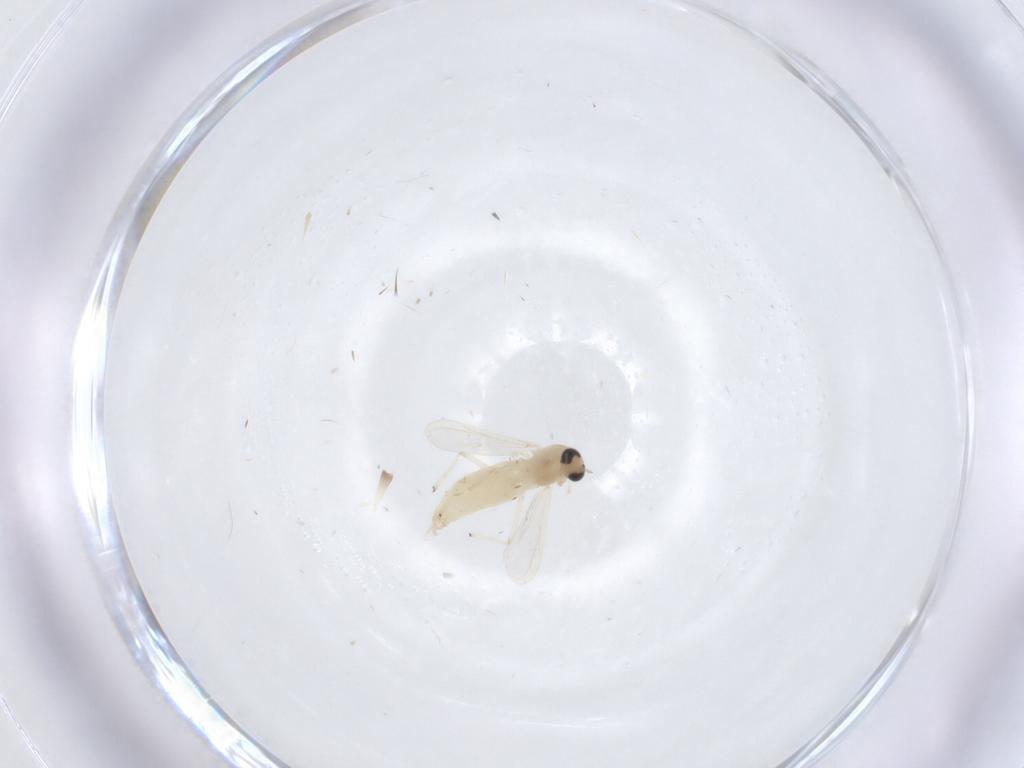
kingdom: Animalia
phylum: Arthropoda
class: Insecta
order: Diptera
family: Chironomidae
